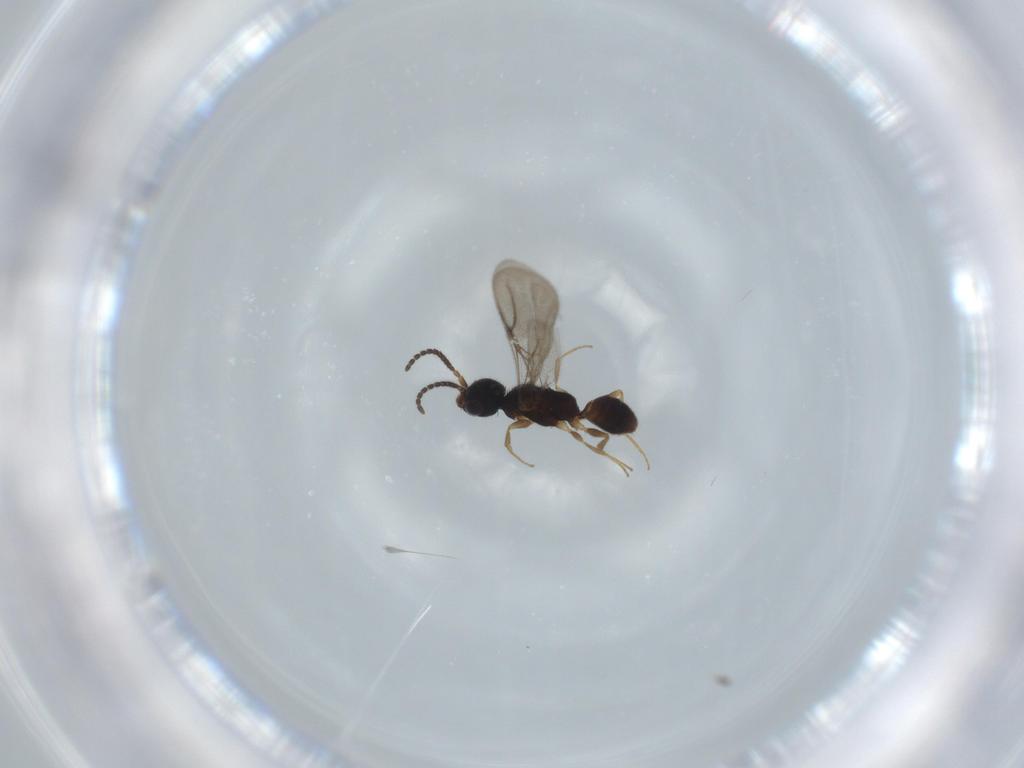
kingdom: Animalia
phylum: Arthropoda
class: Insecta
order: Hymenoptera
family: Bethylidae
